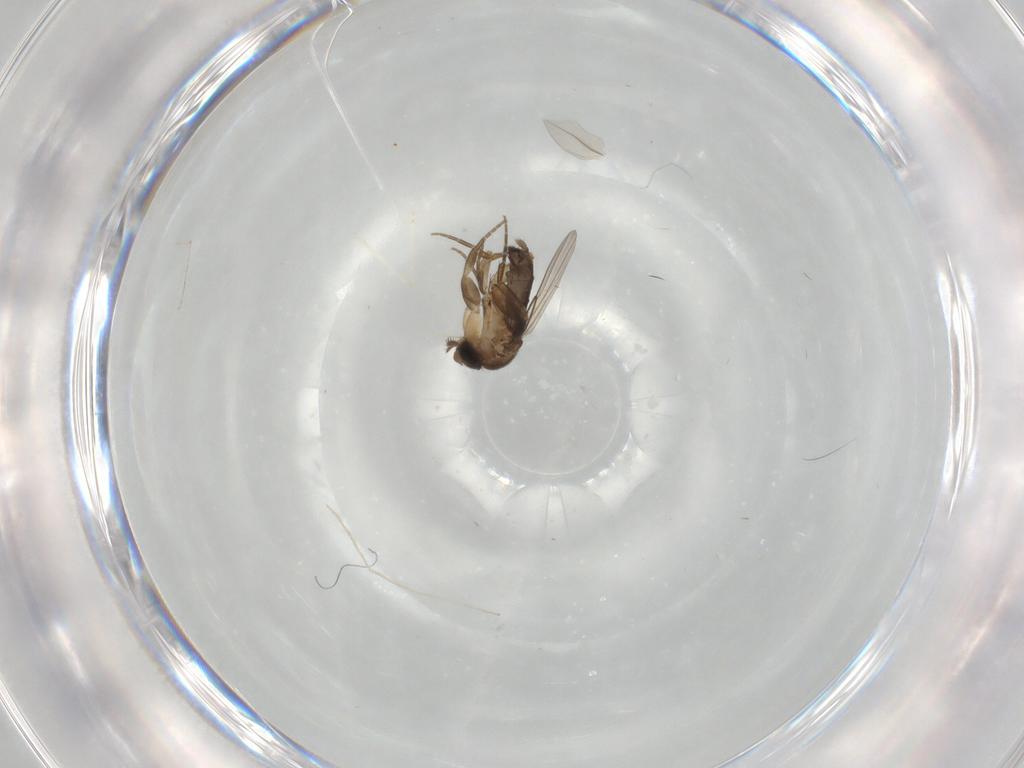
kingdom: Animalia
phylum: Arthropoda
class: Insecta
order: Diptera
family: Phoridae
